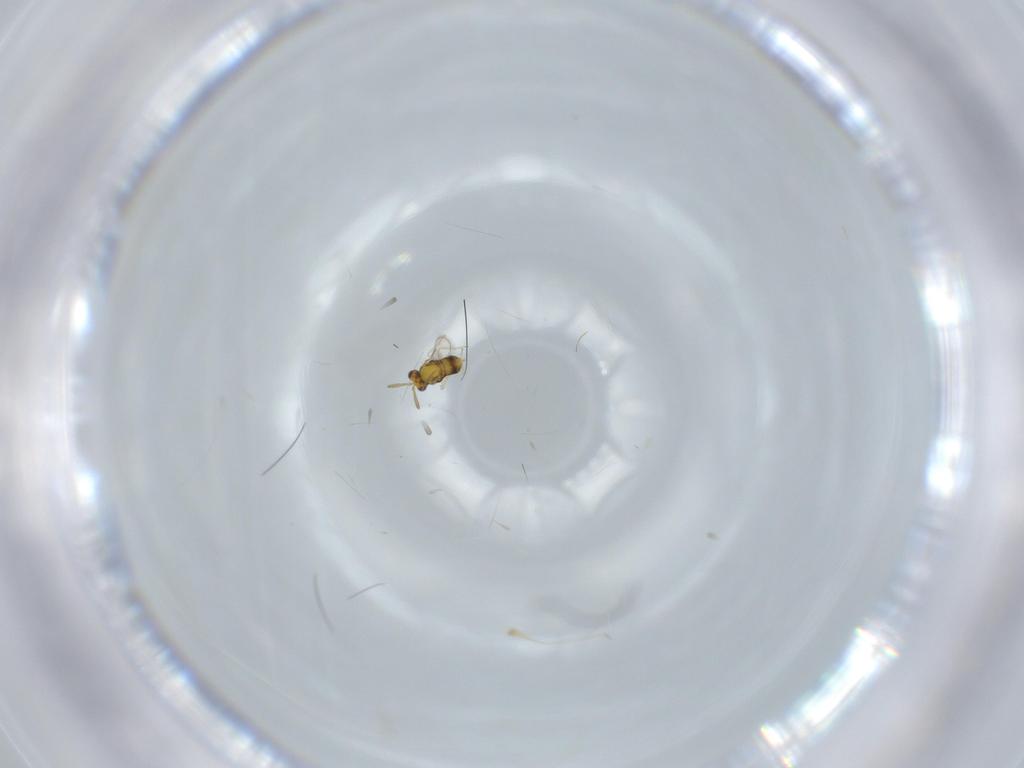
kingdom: Animalia
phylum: Arthropoda
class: Insecta
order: Hymenoptera
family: Aphelinidae
